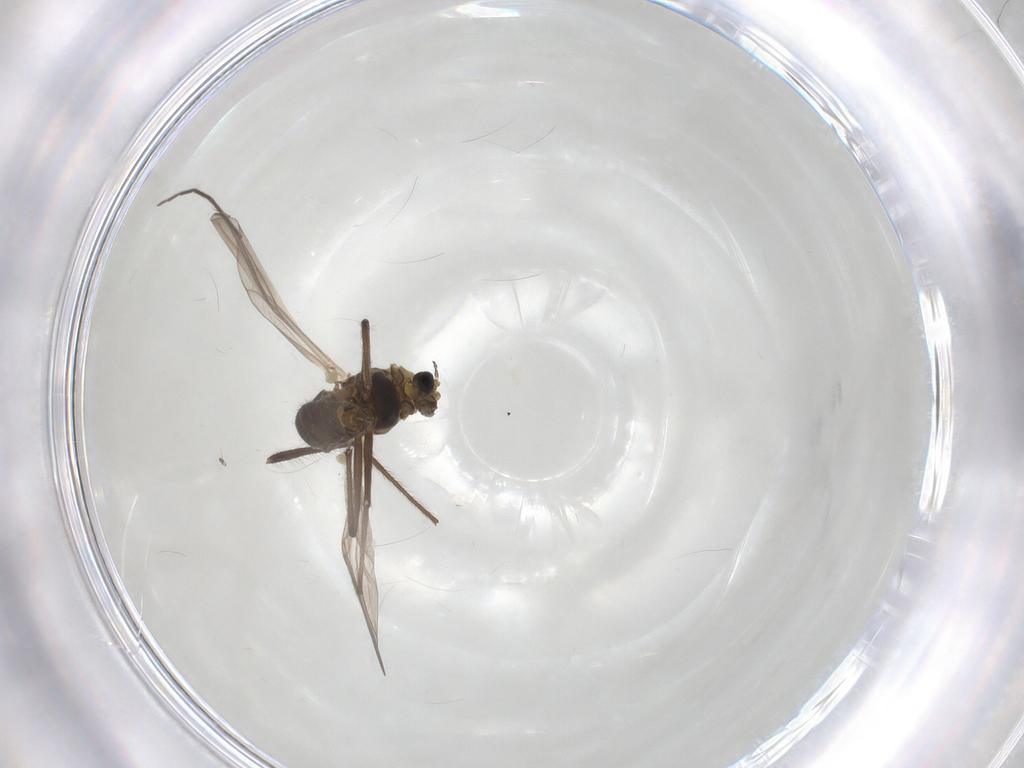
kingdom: Animalia
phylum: Arthropoda
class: Insecta
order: Diptera
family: Chironomidae
